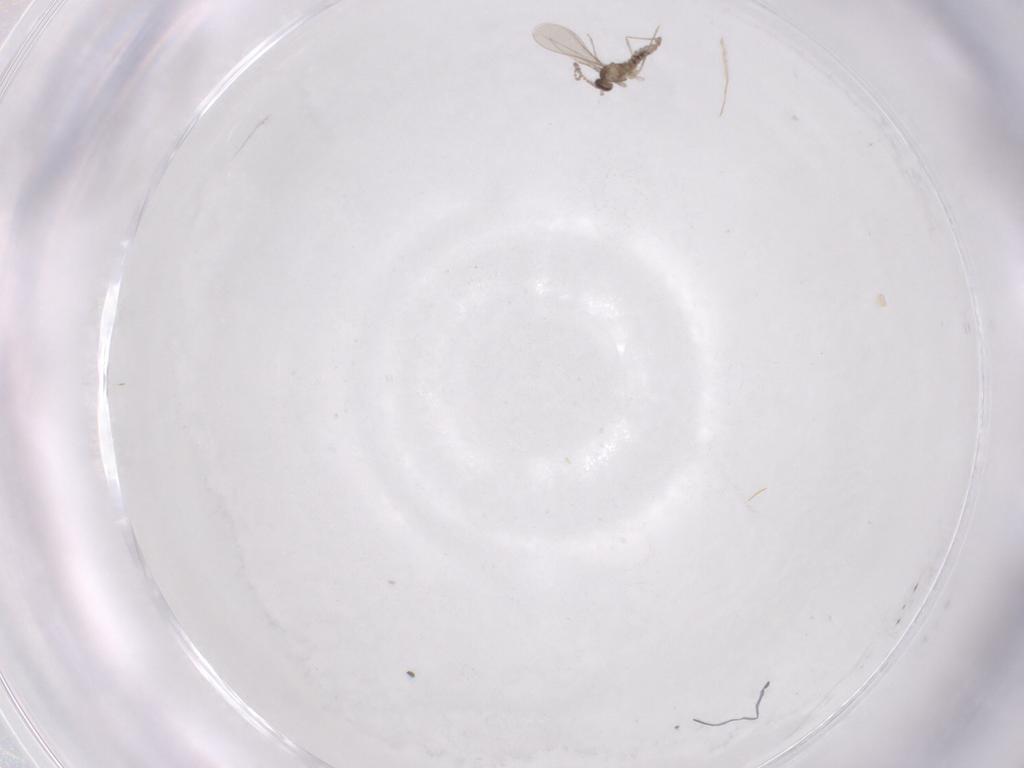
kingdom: Animalia
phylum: Arthropoda
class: Insecta
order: Diptera
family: Cecidomyiidae
